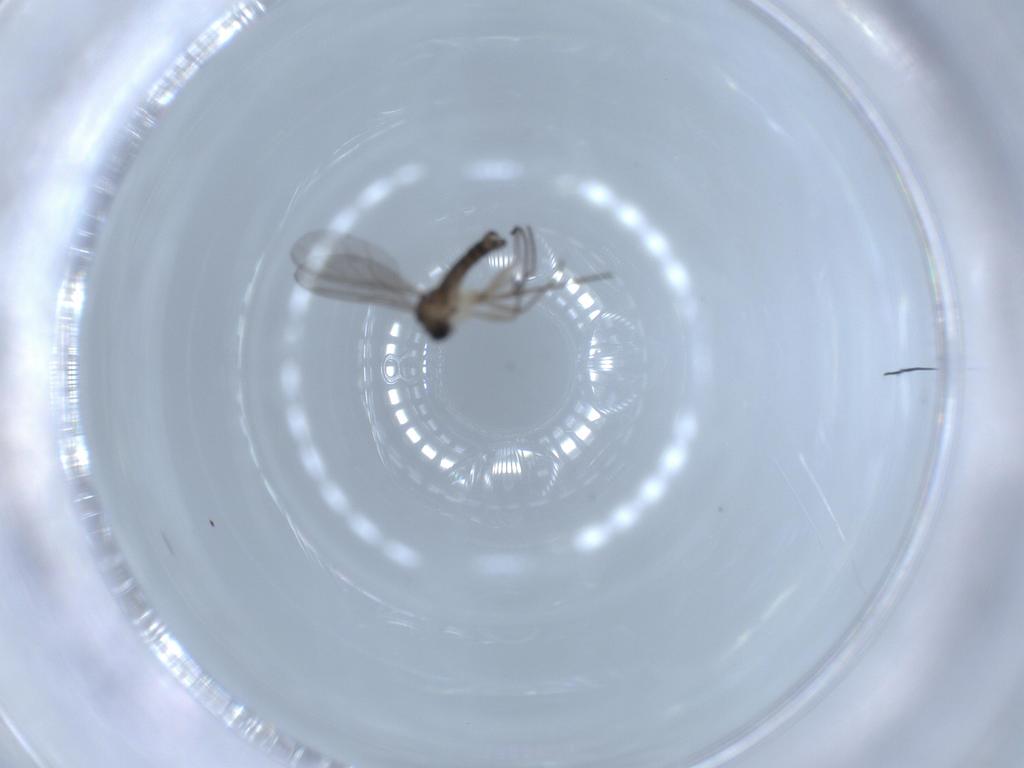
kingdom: Animalia
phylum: Arthropoda
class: Insecta
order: Diptera
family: Sciaridae
